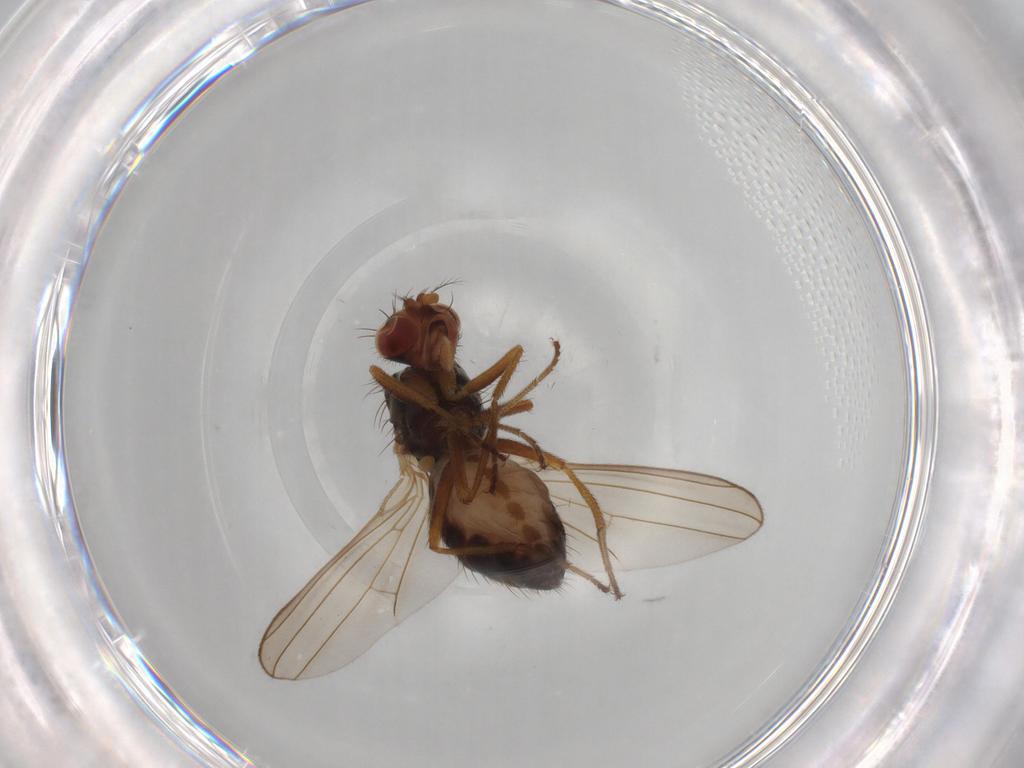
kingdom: Animalia
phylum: Arthropoda
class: Insecta
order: Diptera
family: Drosophilidae
